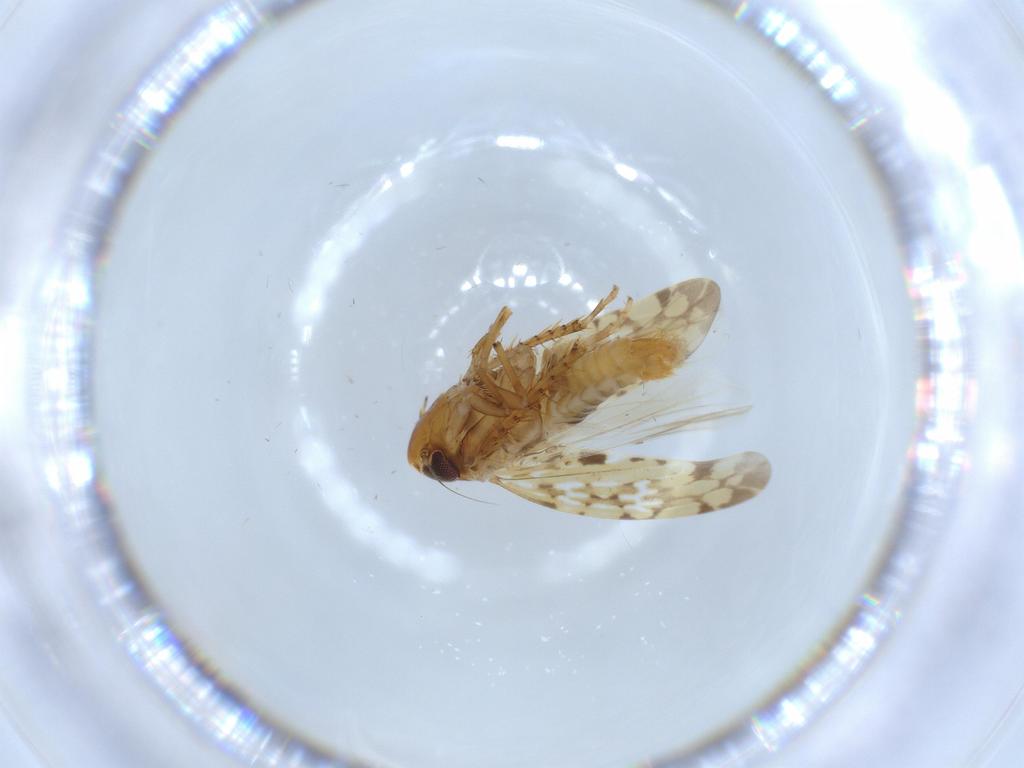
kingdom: Animalia
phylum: Arthropoda
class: Insecta
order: Hemiptera
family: Cicadellidae
